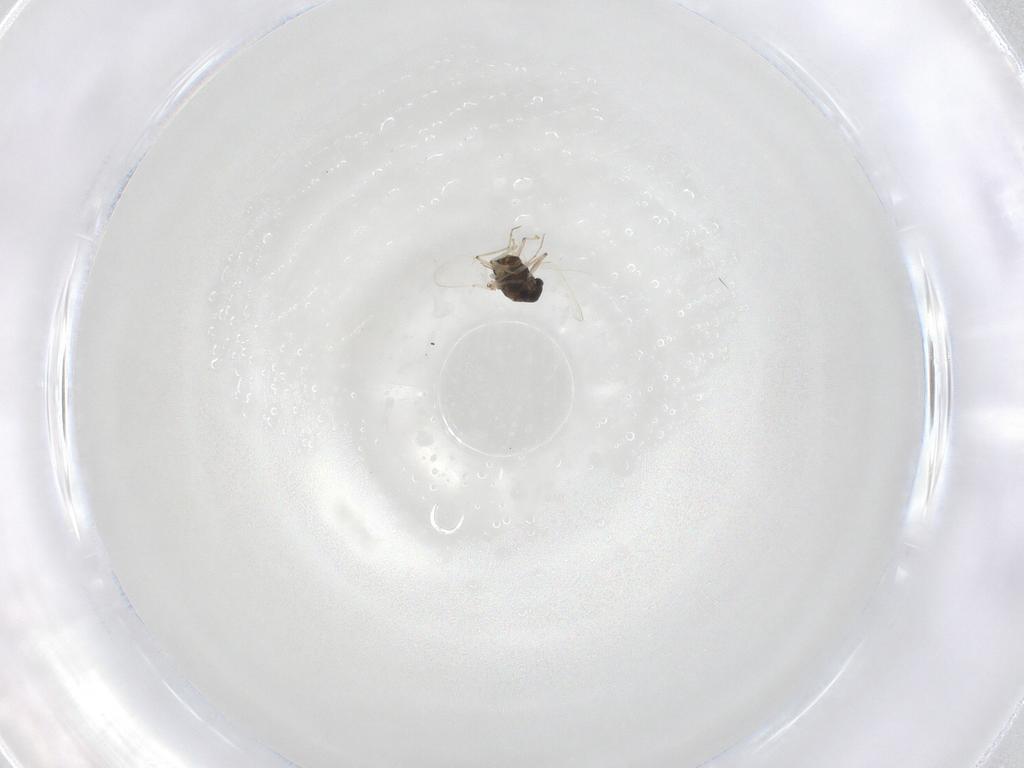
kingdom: Animalia
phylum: Arthropoda
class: Insecta
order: Diptera
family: Chironomidae
